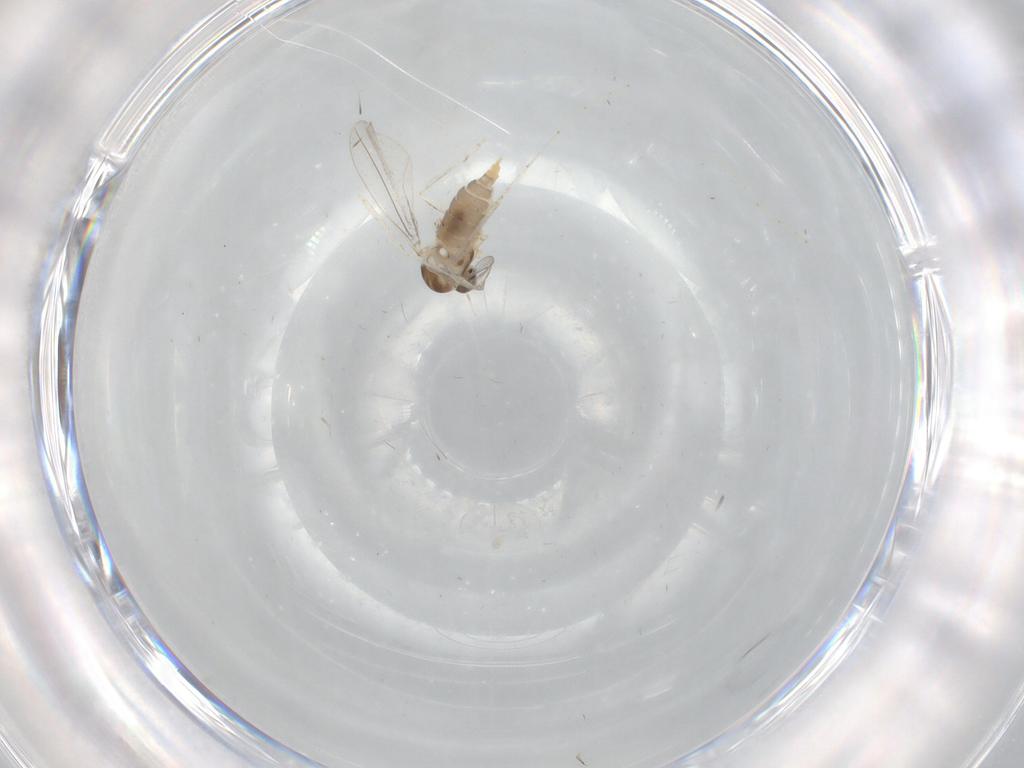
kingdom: Animalia
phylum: Arthropoda
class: Insecta
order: Diptera
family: Cecidomyiidae
